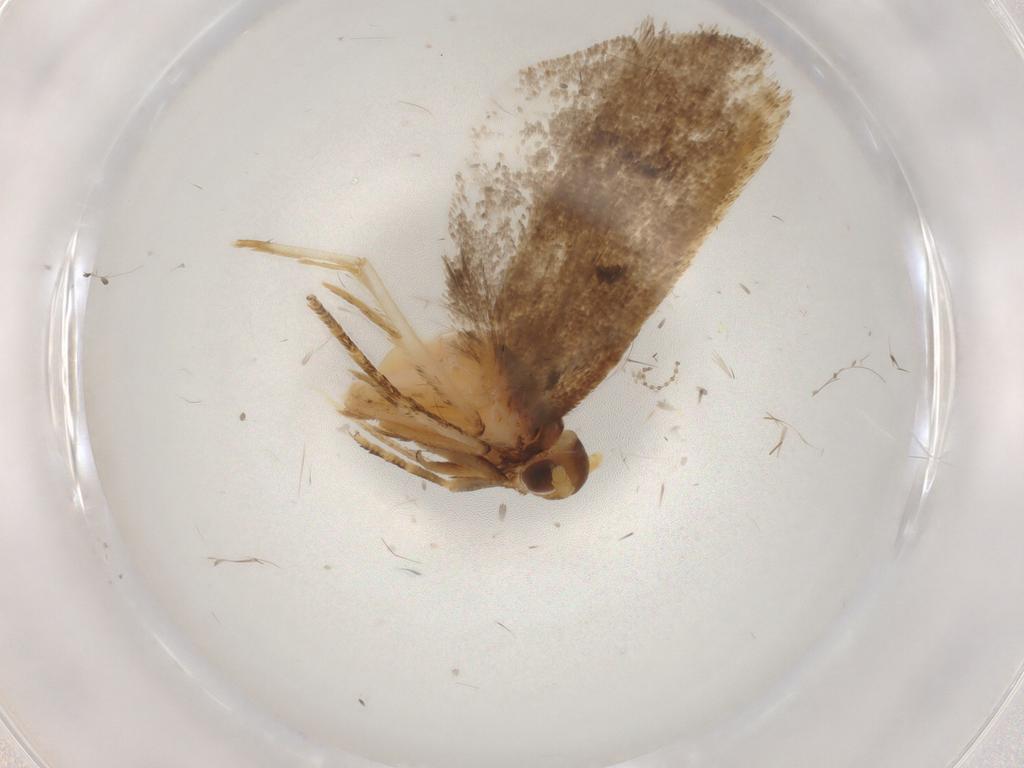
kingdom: Animalia
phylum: Arthropoda
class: Insecta
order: Lepidoptera
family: Lecithoceridae
